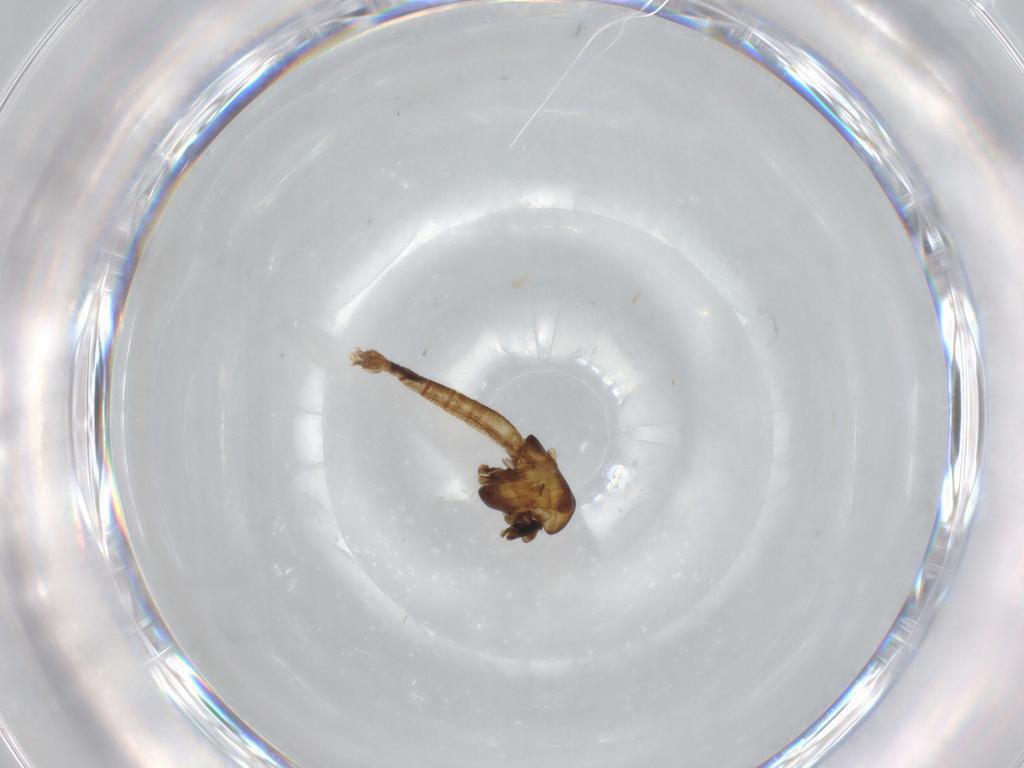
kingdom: Animalia
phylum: Arthropoda
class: Insecta
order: Diptera
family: Chironomidae
